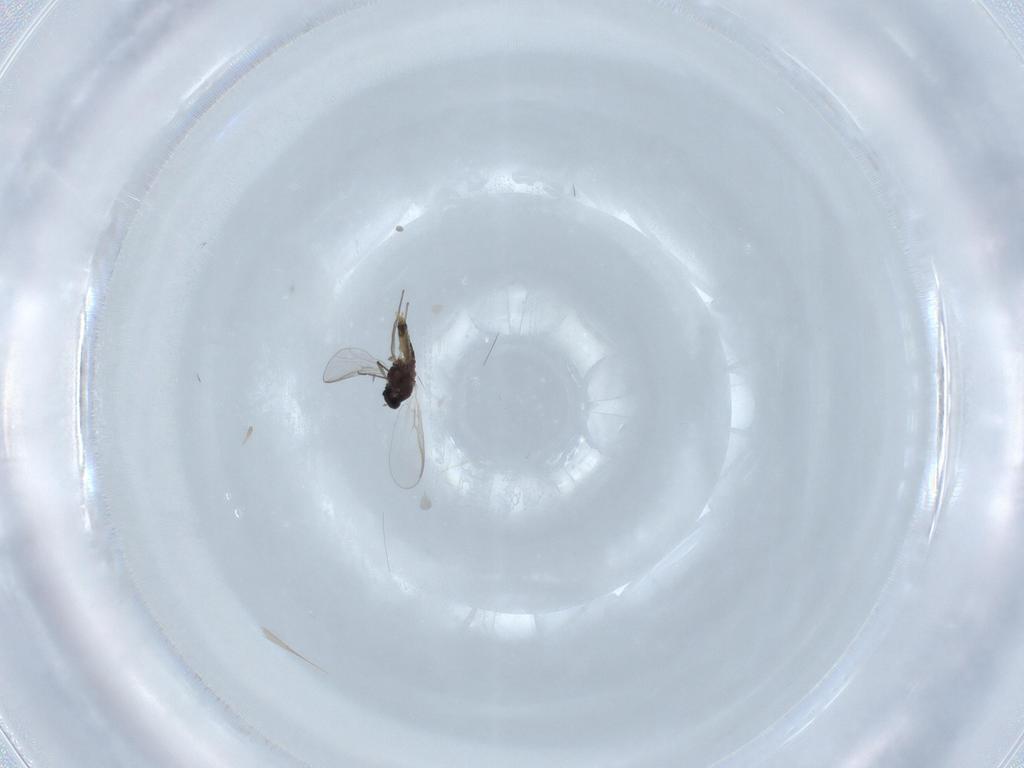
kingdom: Animalia
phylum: Arthropoda
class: Insecta
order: Diptera
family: Chironomidae
